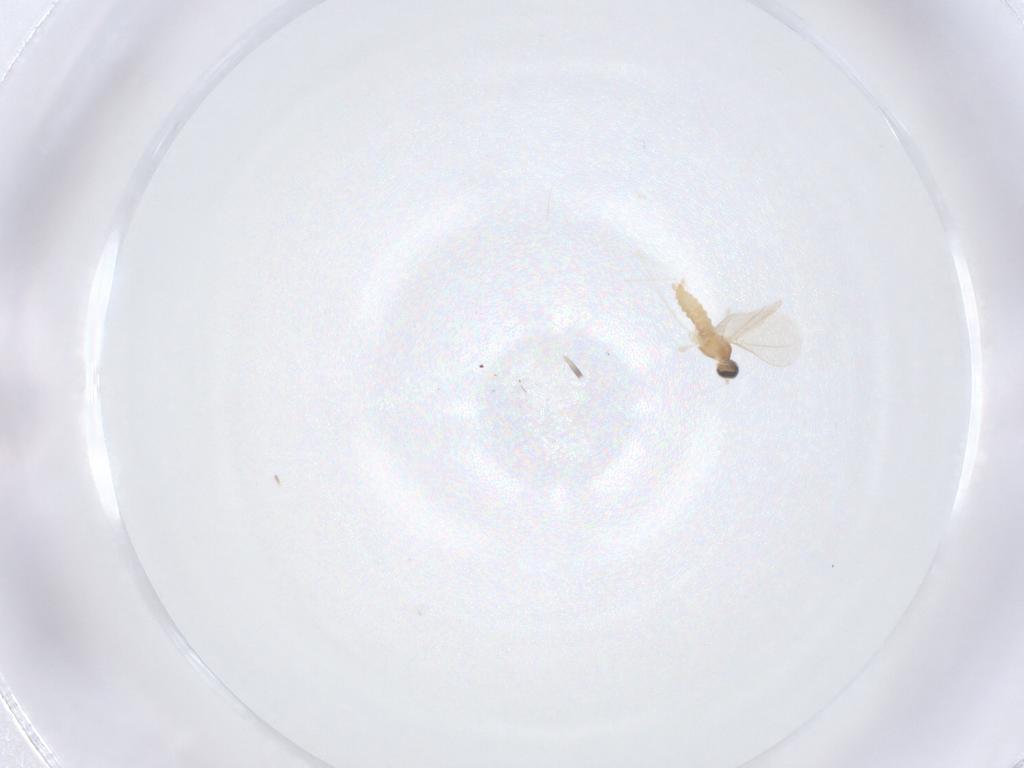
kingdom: Animalia
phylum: Arthropoda
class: Insecta
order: Diptera
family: Cecidomyiidae
